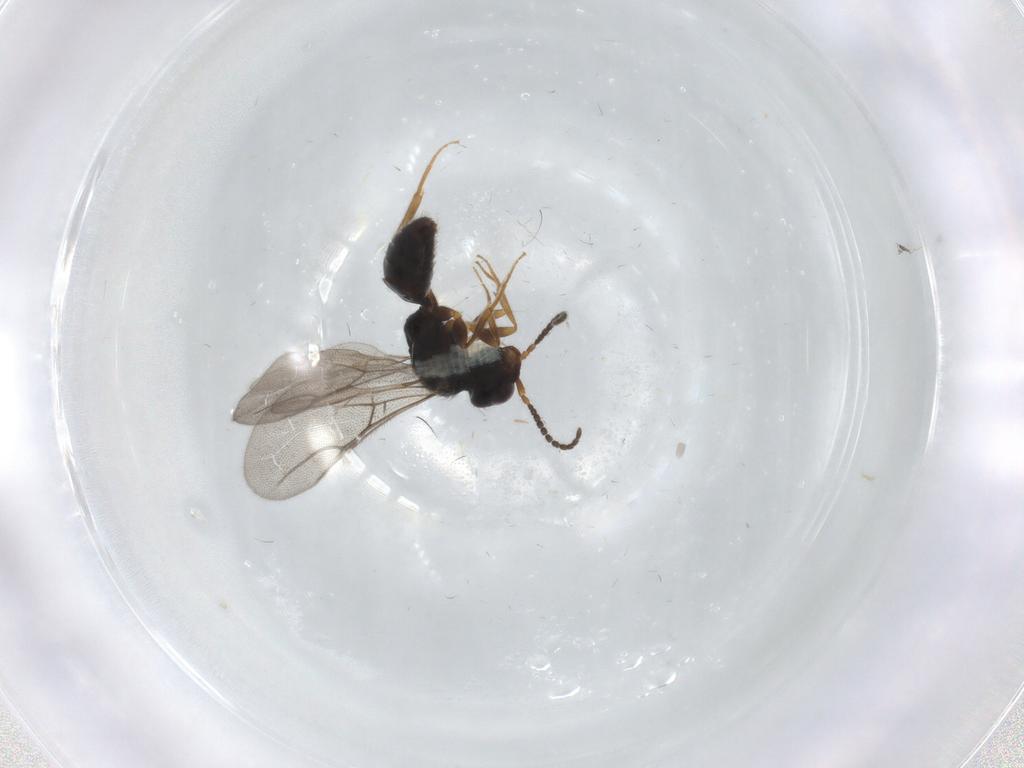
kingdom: Animalia
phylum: Arthropoda
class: Insecta
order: Hymenoptera
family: Bethylidae
